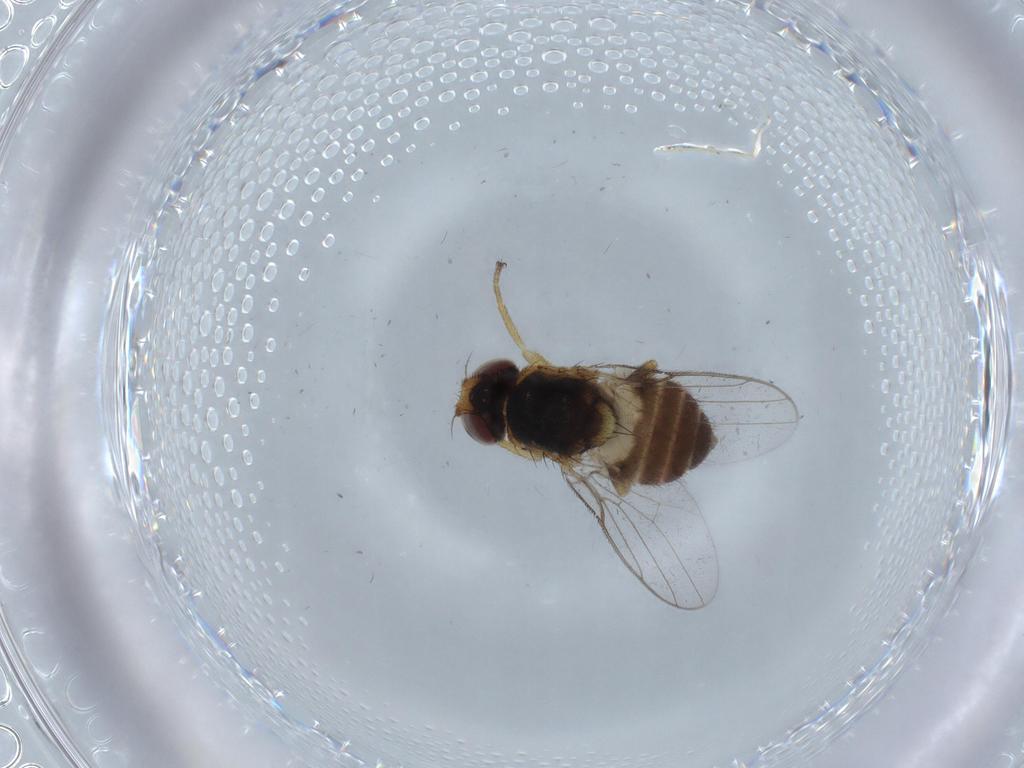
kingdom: Animalia
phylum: Arthropoda
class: Insecta
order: Diptera
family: Chloropidae
